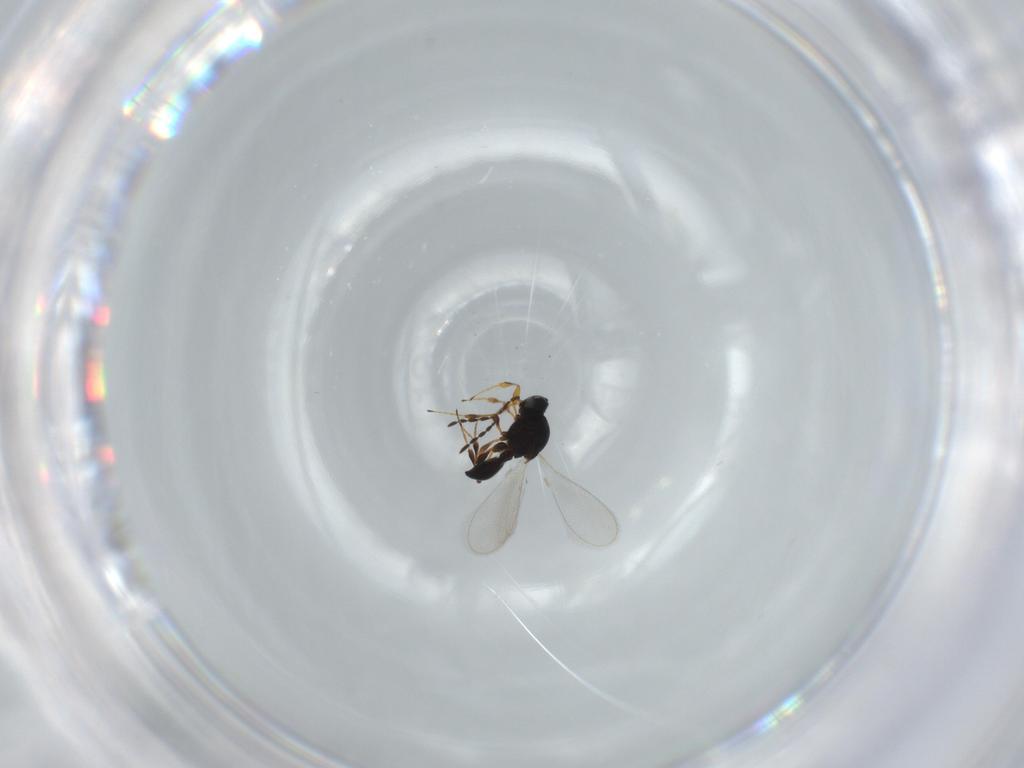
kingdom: Animalia
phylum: Arthropoda
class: Insecta
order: Hymenoptera
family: Platygastridae
